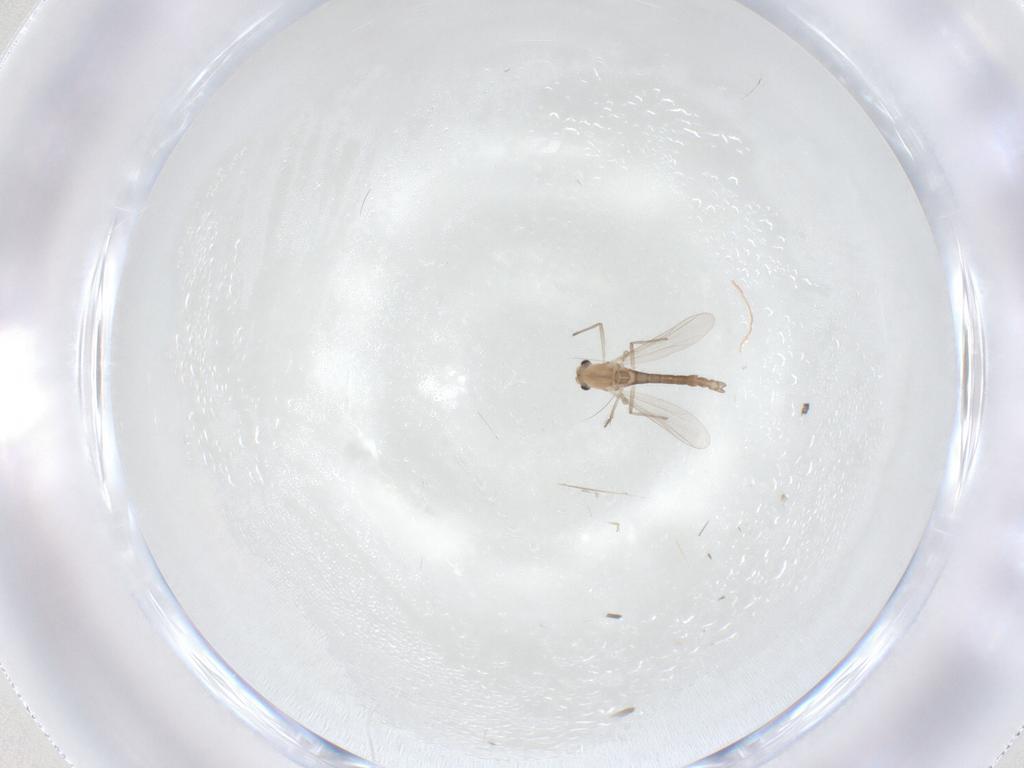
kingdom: Animalia
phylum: Arthropoda
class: Insecta
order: Diptera
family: Chironomidae
